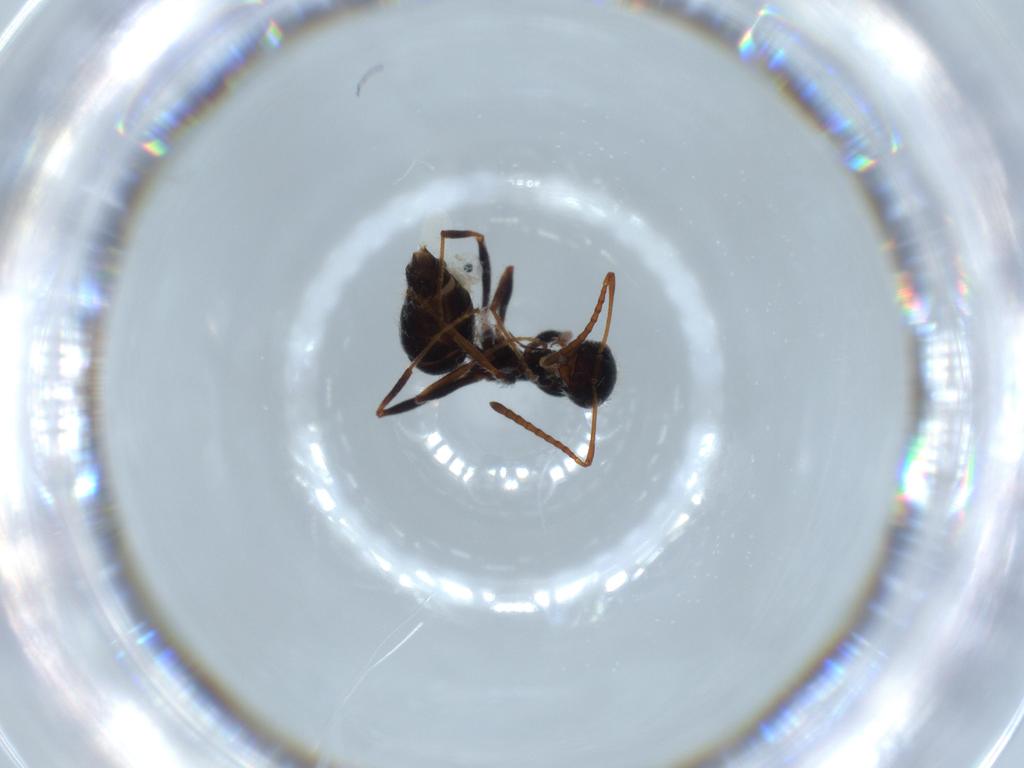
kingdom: Animalia
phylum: Arthropoda
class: Insecta
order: Hymenoptera
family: Formicidae
